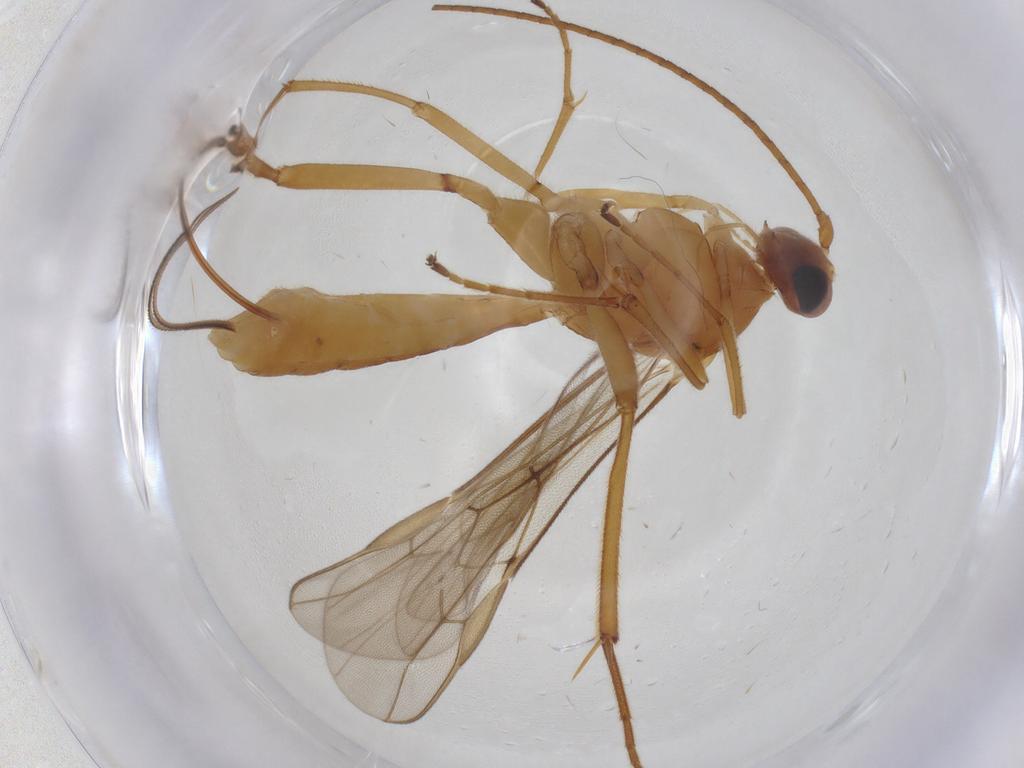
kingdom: Animalia
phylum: Arthropoda
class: Insecta
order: Hymenoptera
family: Braconidae
